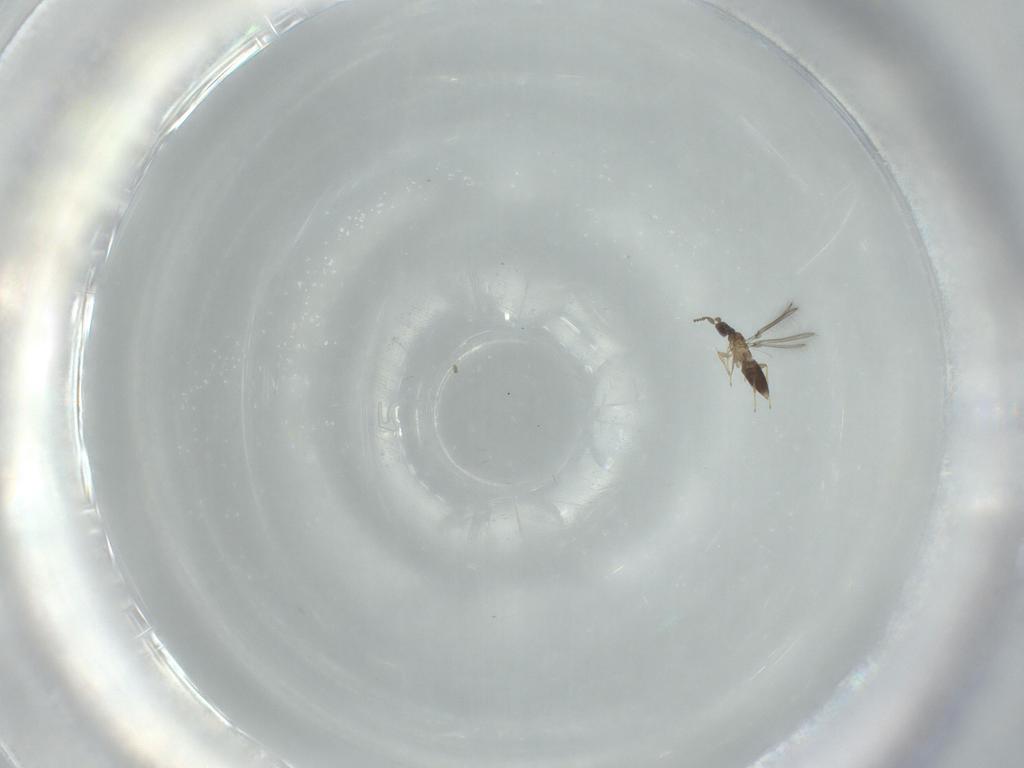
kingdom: Animalia
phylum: Arthropoda
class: Insecta
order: Hymenoptera
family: Mymaridae
